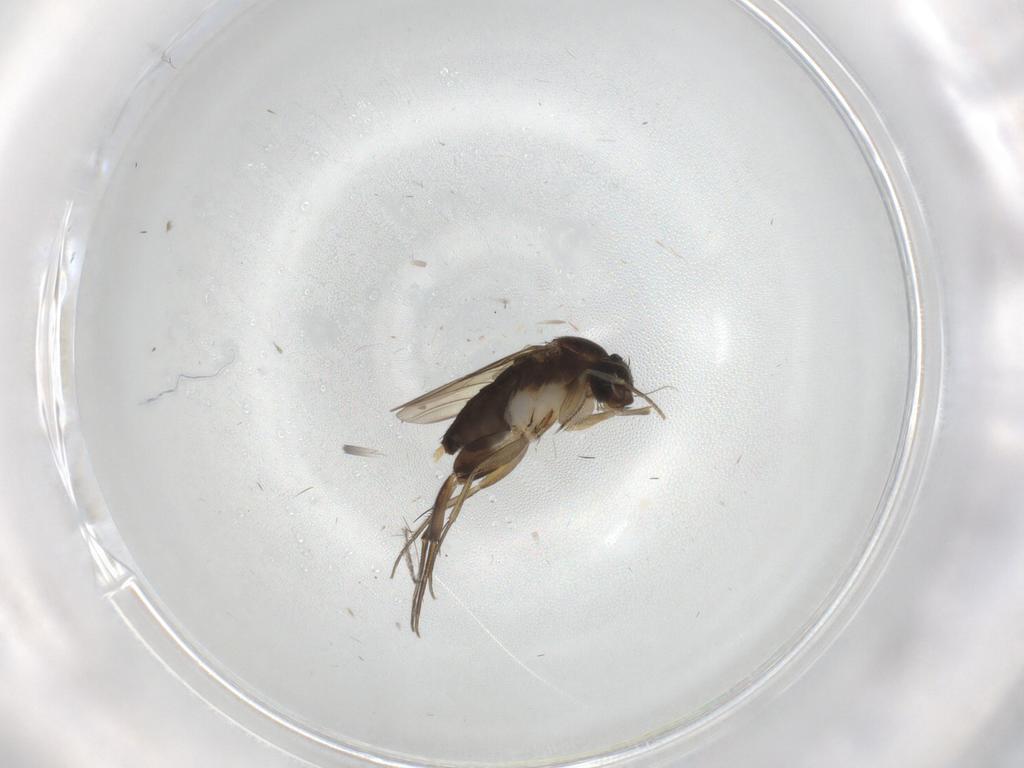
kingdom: Animalia
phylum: Arthropoda
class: Insecta
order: Diptera
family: Phoridae
